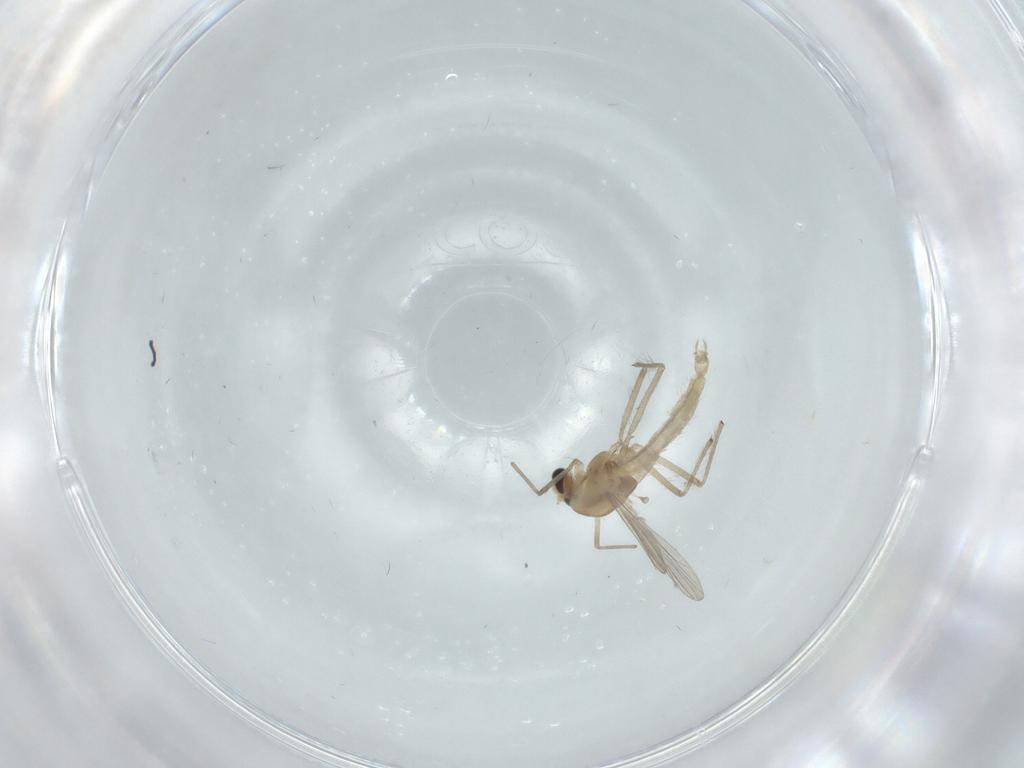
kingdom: Animalia
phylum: Arthropoda
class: Insecta
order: Diptera
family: Chironomidae
